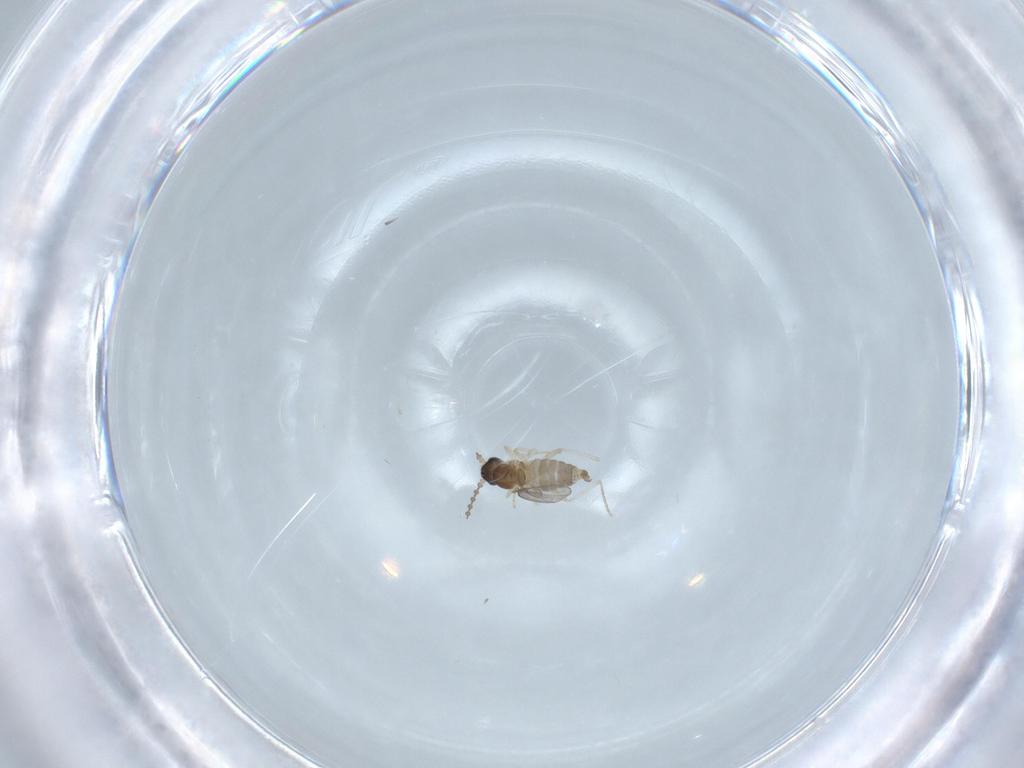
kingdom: Animalia
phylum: Arthropoda
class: Insecta
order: Diptera
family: Cecidomyiidae
